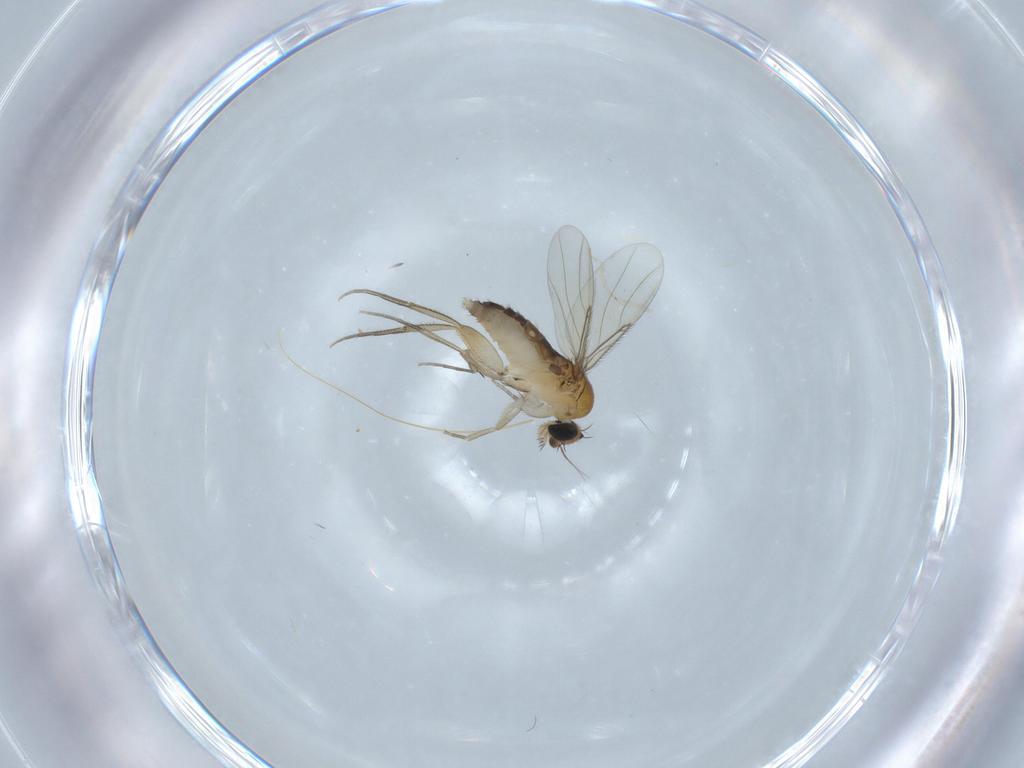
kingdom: Animalia
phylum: Arthropoda
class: Insecta
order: Diptera
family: Phoridae
